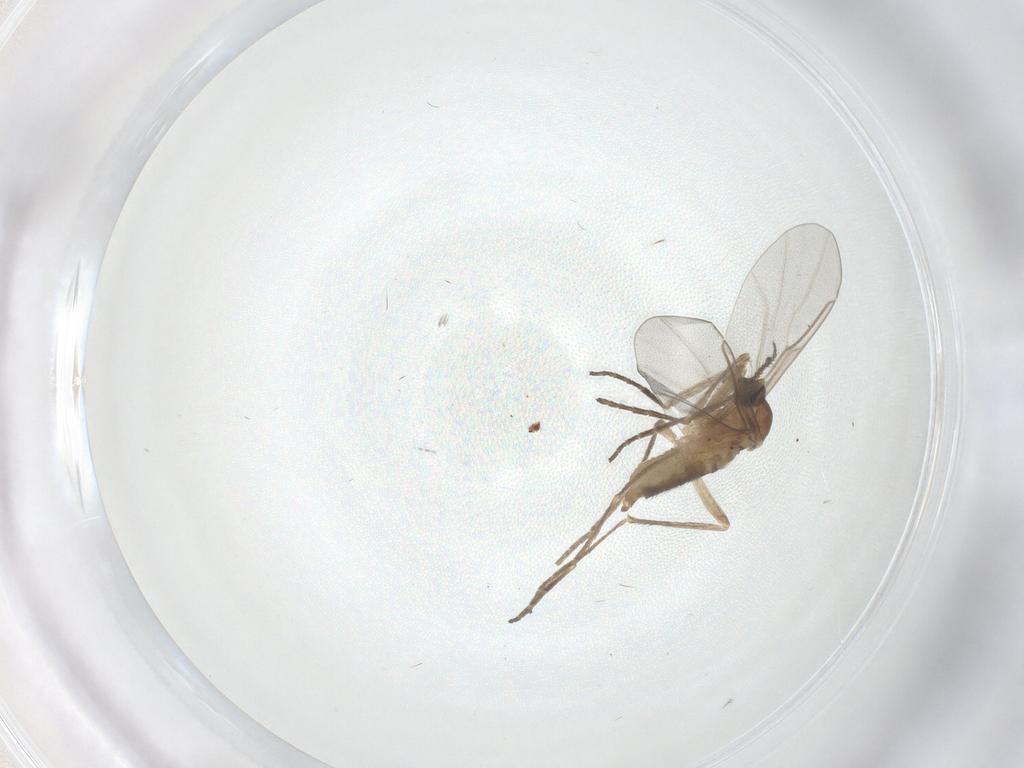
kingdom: Animalia
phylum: Arthropoda
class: Insecta
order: Diptera
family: Cecidomyiidae
